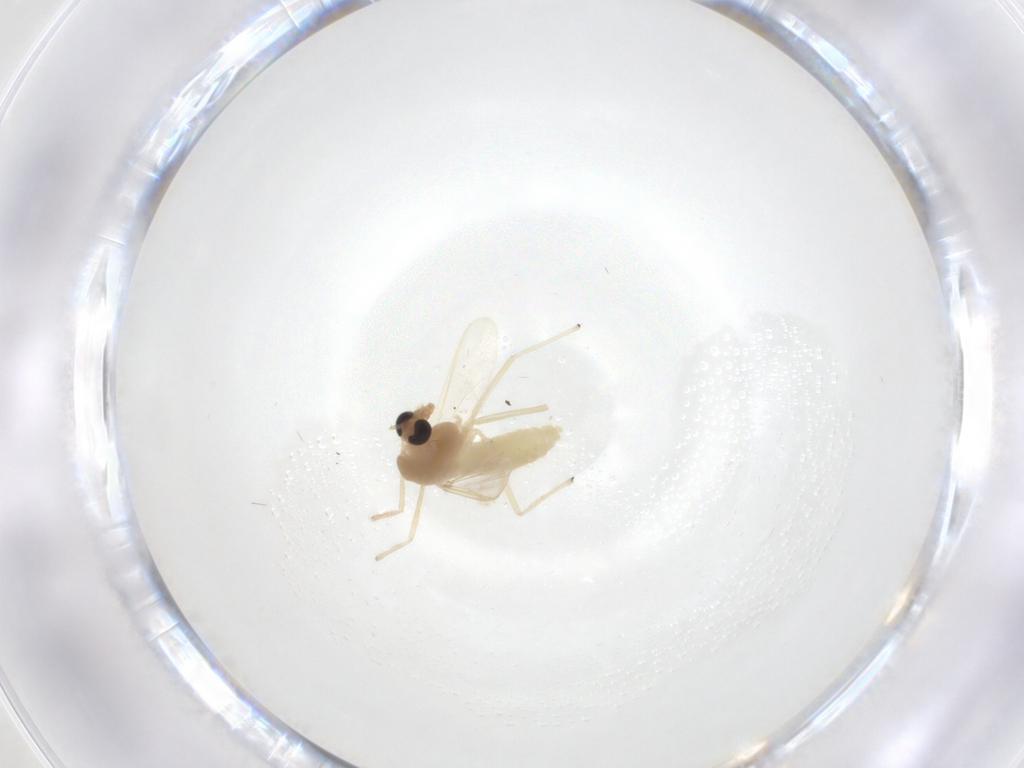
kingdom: Animalia
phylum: Arthropoda
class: Insecta
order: Diptera
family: Chironomidae
